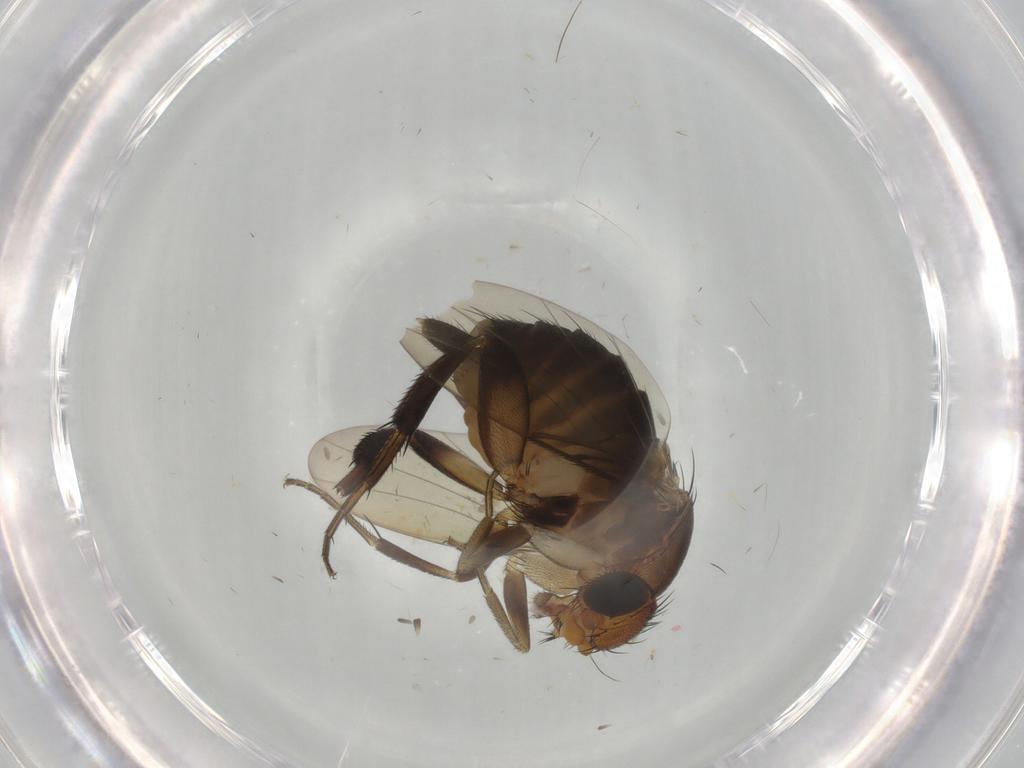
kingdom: Animalia
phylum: Arthropoda
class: Insecta
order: Diptera
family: Phoridae
